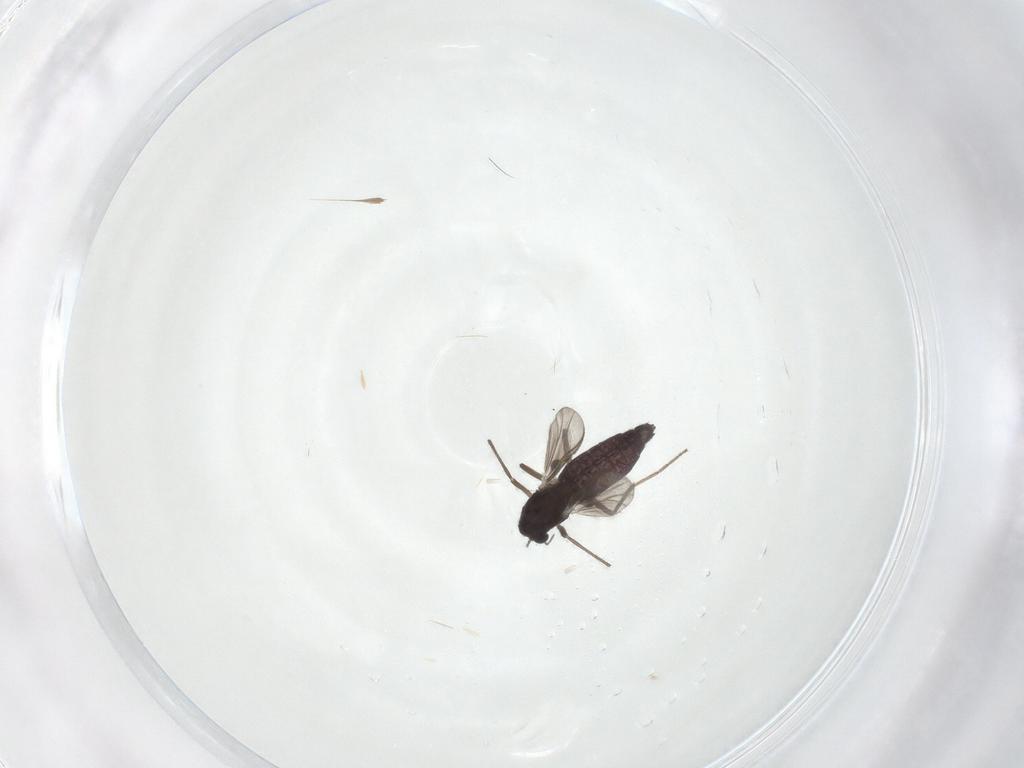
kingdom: Animalia
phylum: Arthropoda
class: Insecta
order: Diptera
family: Chironomidae
